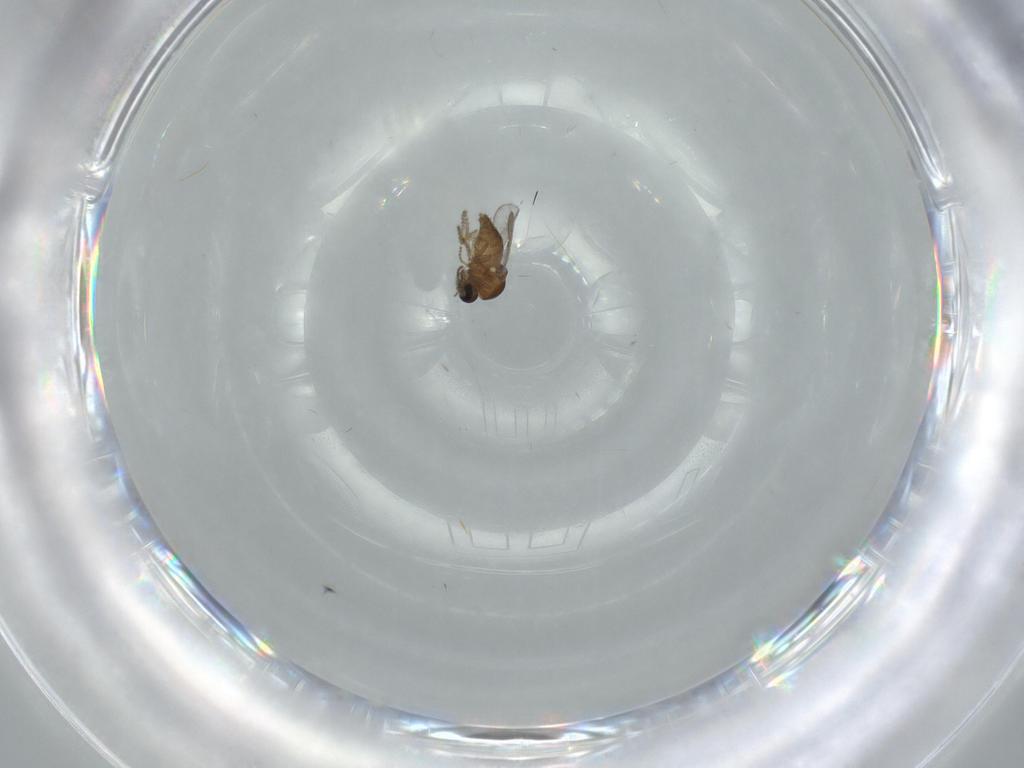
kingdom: Animalia
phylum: Arthropoda
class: Insecta
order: Diptera
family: Ceratopogonidae
